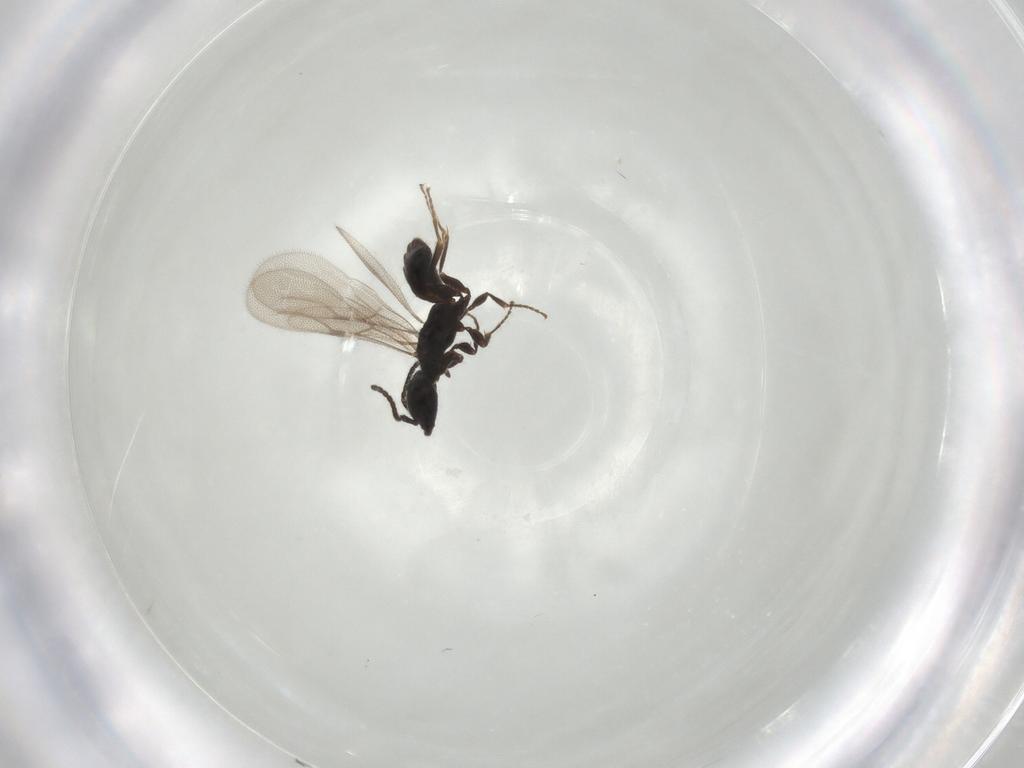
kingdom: Animalia
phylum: Arthropoda
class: Insecta
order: Hymenoptera
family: Bethylidae
